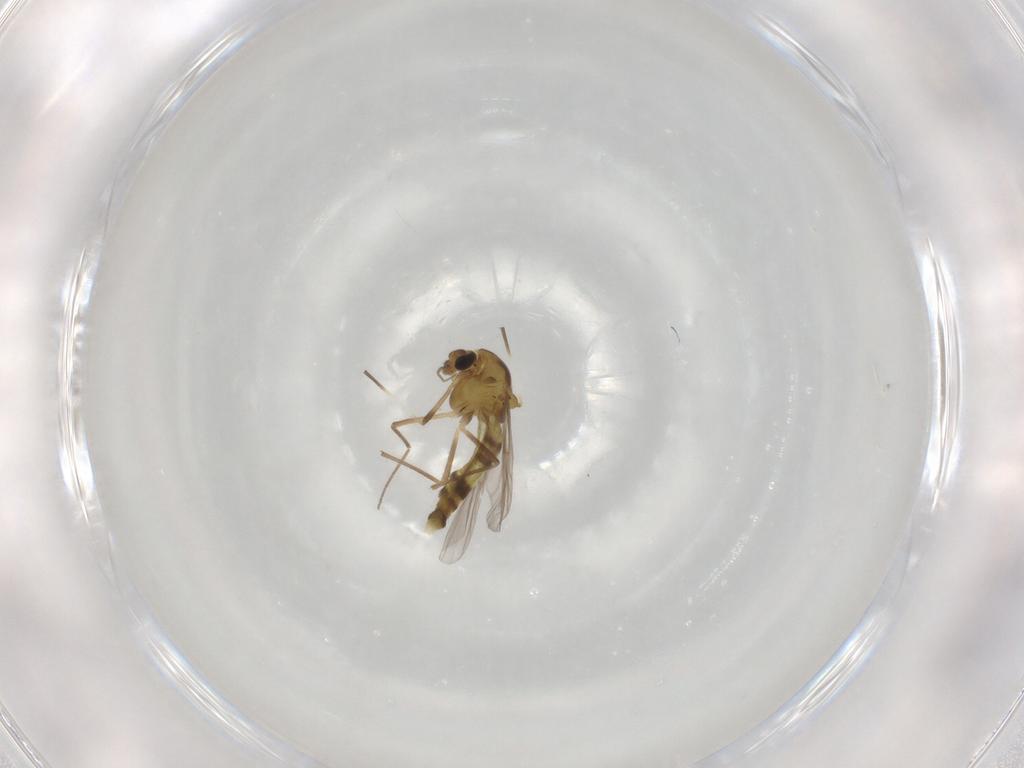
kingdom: Animalia
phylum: Arthropoda
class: Insecta
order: Diptera
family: Chironomidae
